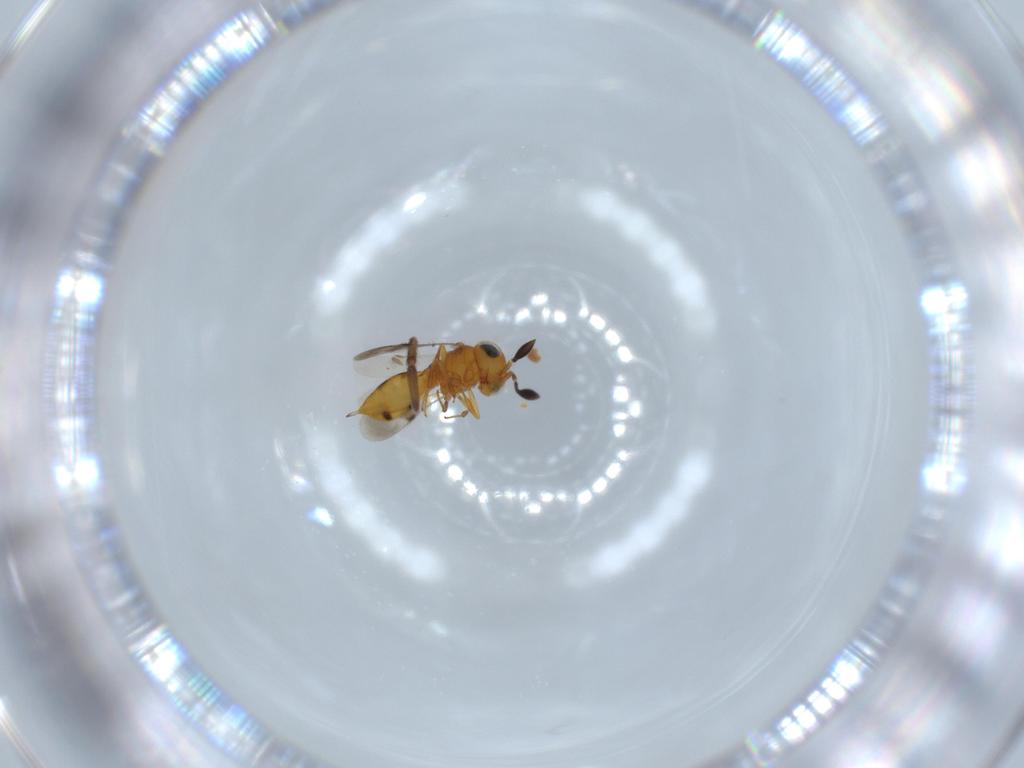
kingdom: Animalia
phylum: Arthropoda
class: Insecta
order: Hymenoptera
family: Scelionidae
